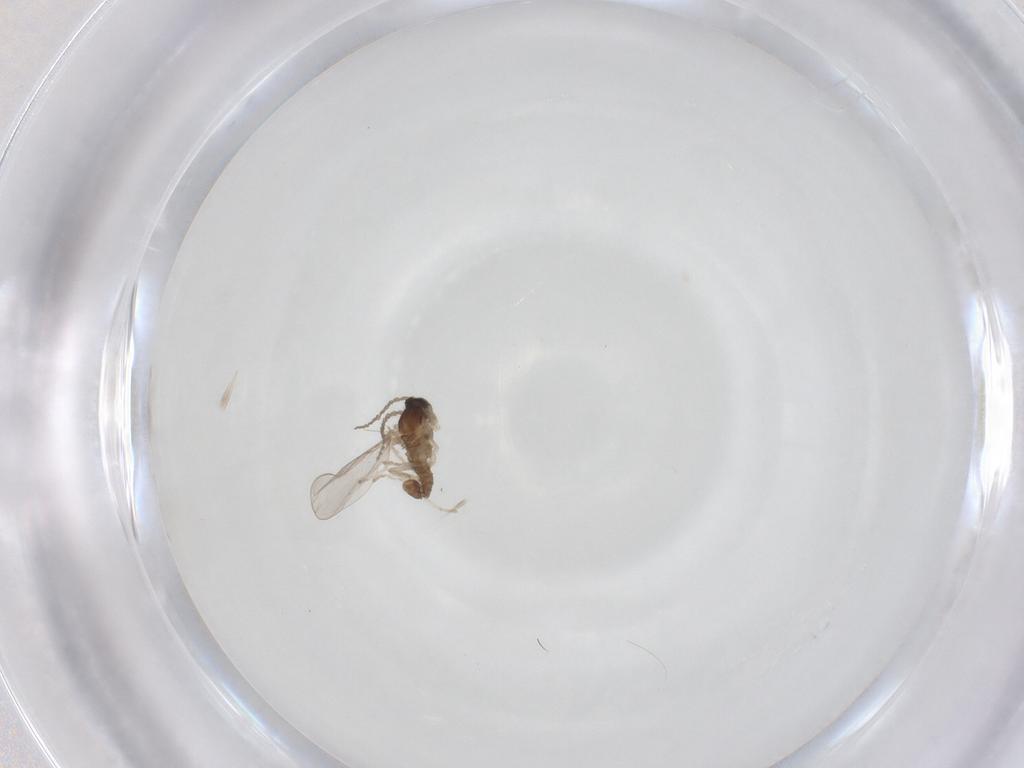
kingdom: Animalia
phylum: Arthropoda
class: Insecta
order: Diptera
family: Cecidomyiidae
